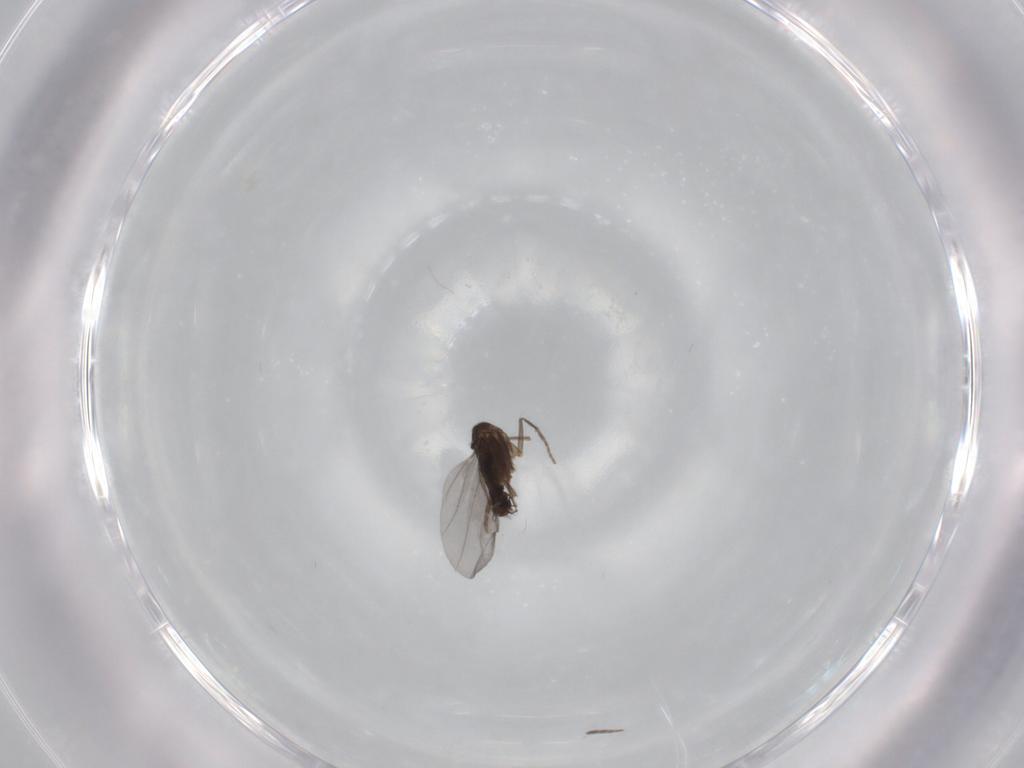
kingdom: Animalia
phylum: Arthropoda
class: Insecta
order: Diptera
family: Phoridae
